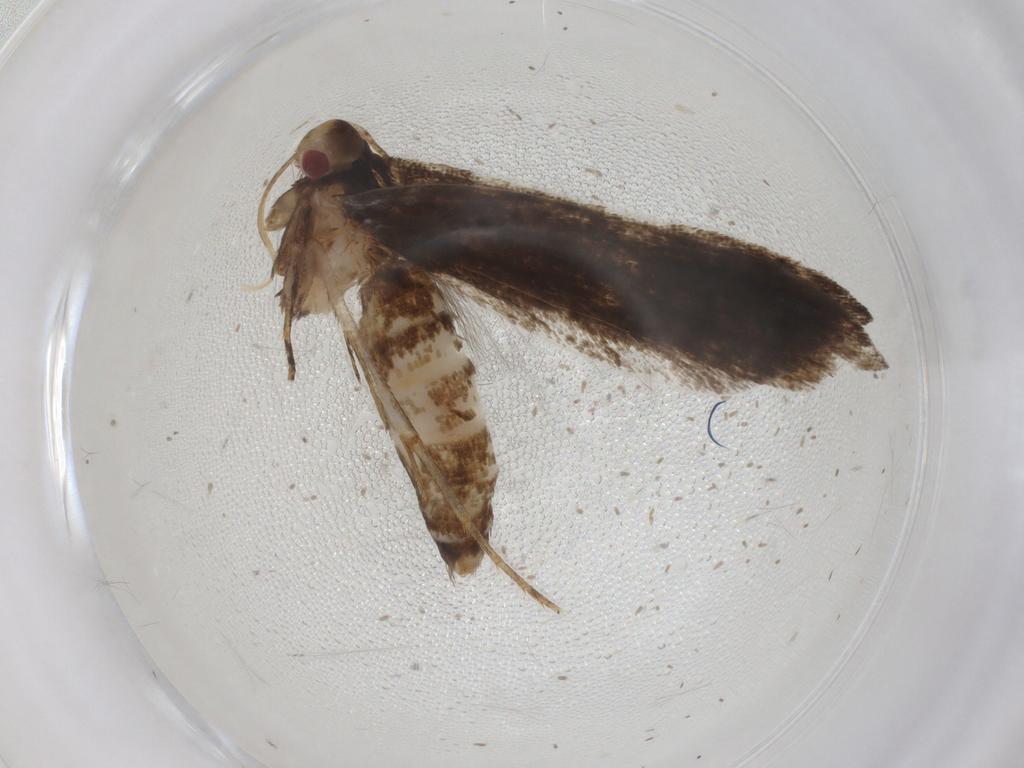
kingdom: Animalia
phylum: Arthropoda
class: Insecta
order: Lepidoptera
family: Gelechiidae
